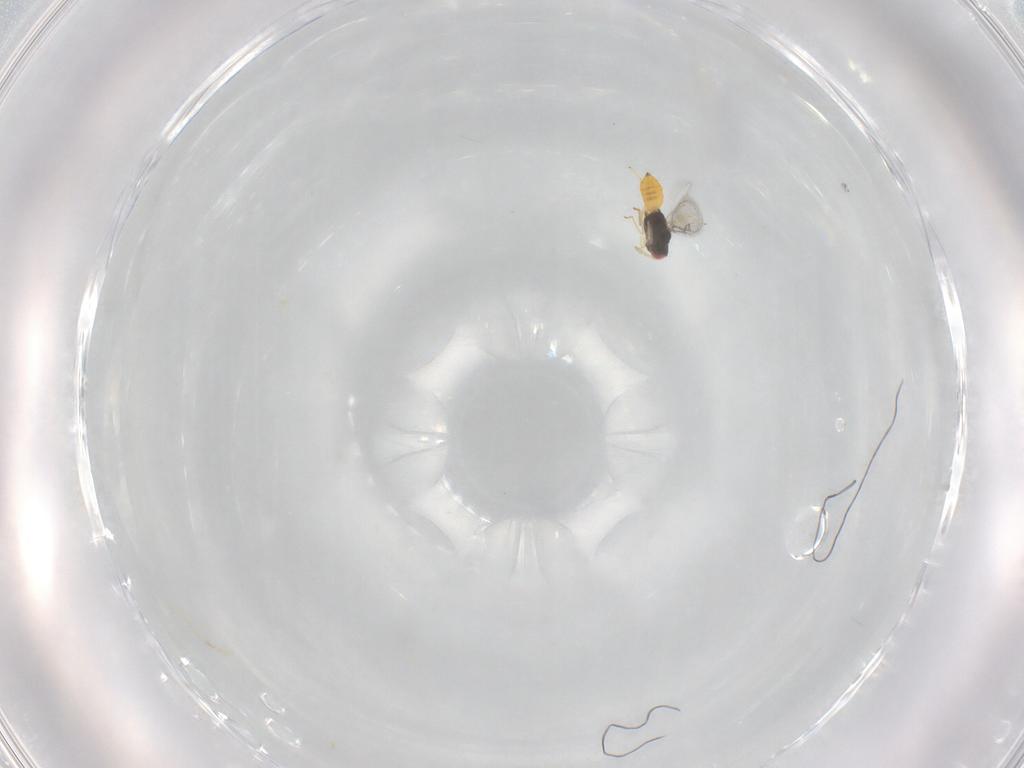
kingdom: Animalia
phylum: Arthropoda
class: Insecta
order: Hymenoptera
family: Eulophidae
